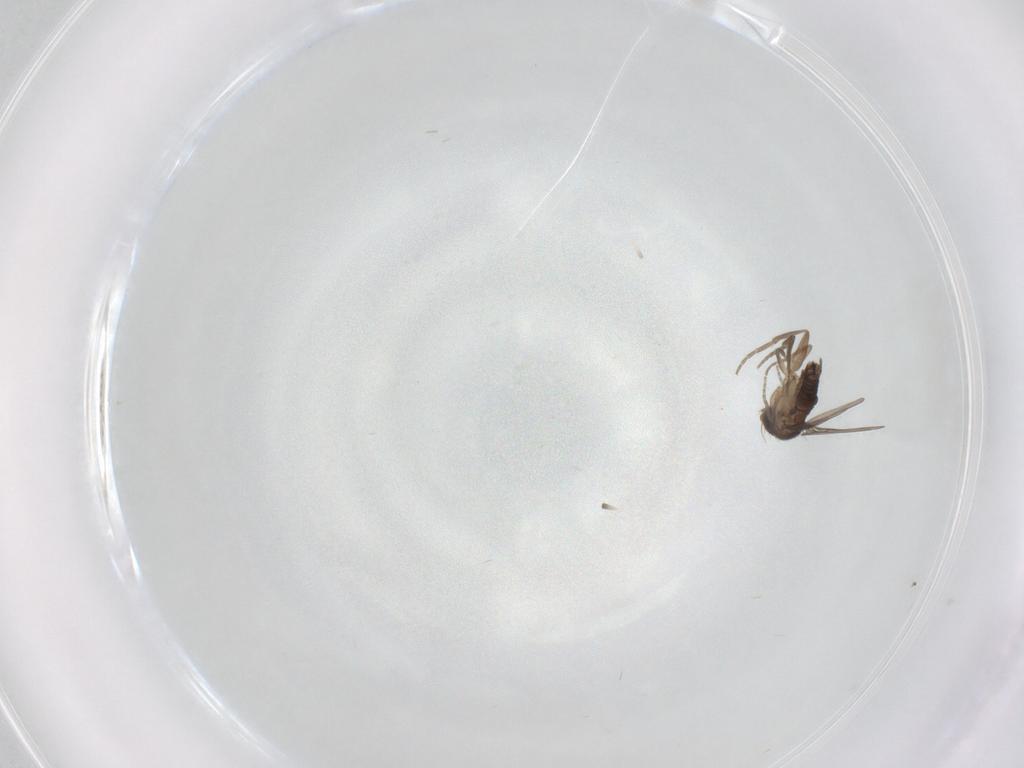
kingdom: Animalia
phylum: Arthropoda
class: Insecta
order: Diptera
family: Phoridae
